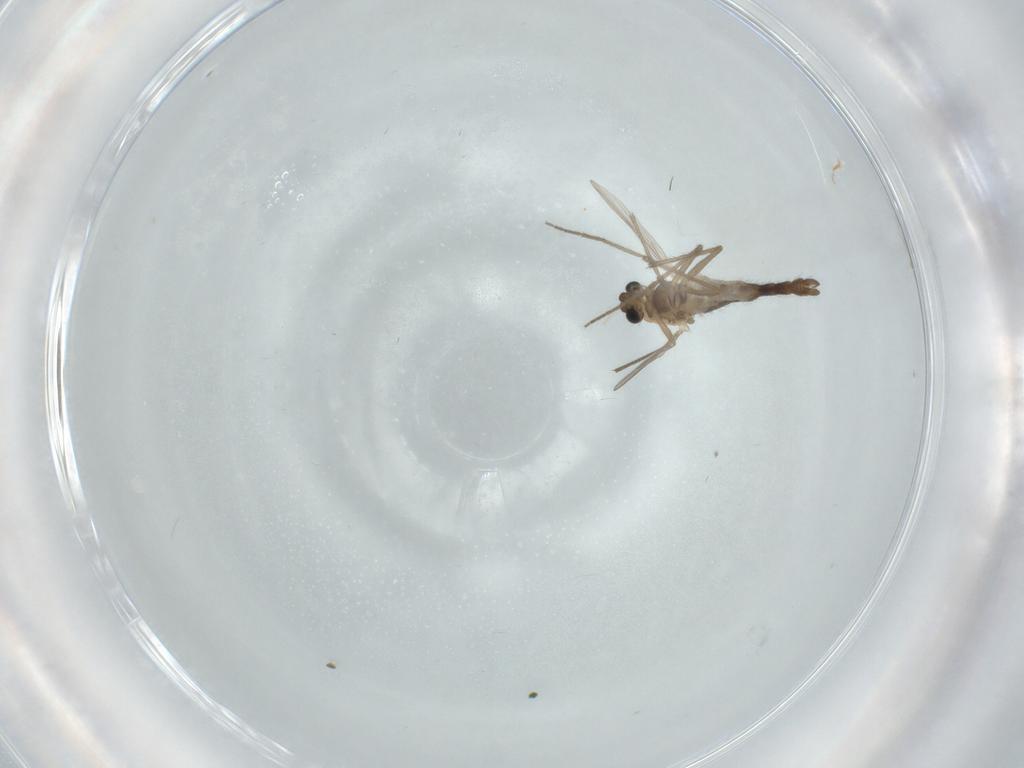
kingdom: Animalia
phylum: Arthropoda
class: Insecta
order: Diptera
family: Chironomidae
